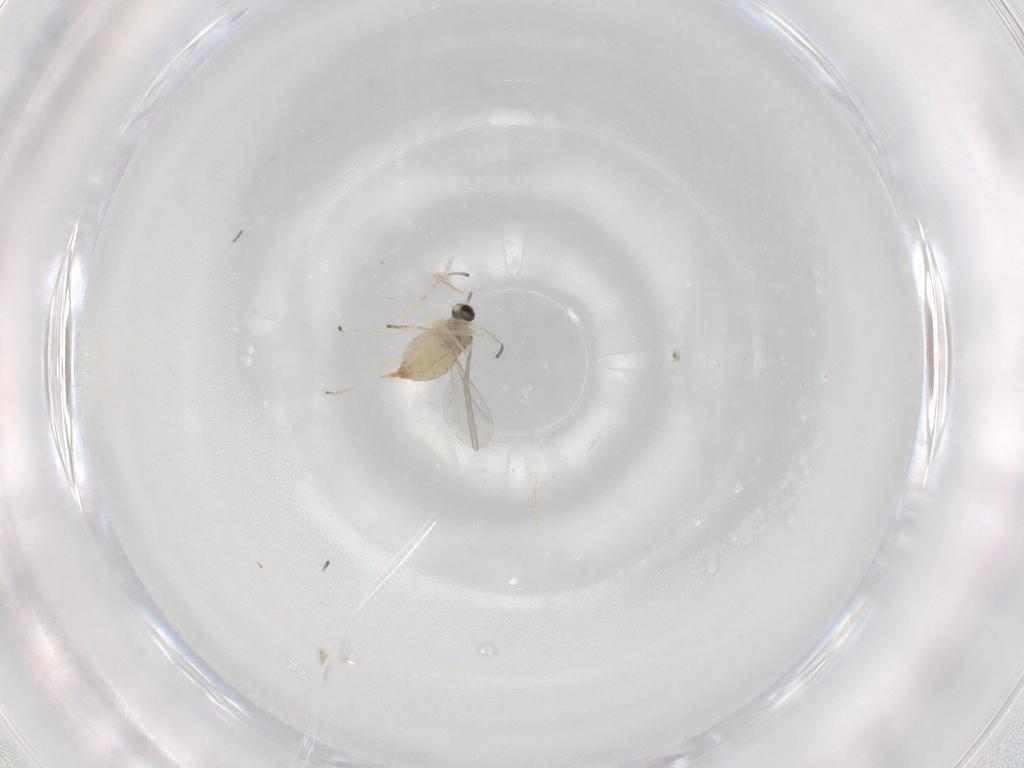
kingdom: Animalia
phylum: Arthropoda
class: Insecta
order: Diptera
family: Cecidomyiidae
